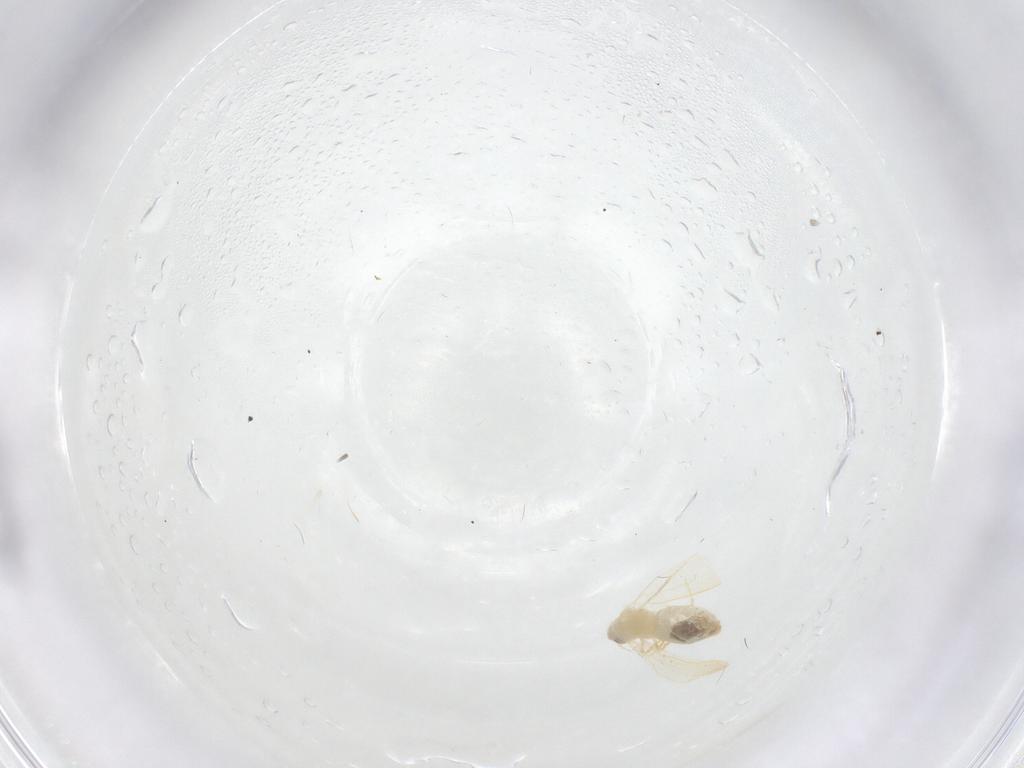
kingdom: Animalia
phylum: Arthropoda
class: Insecta
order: Hemiptera
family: Aleyrodidae
